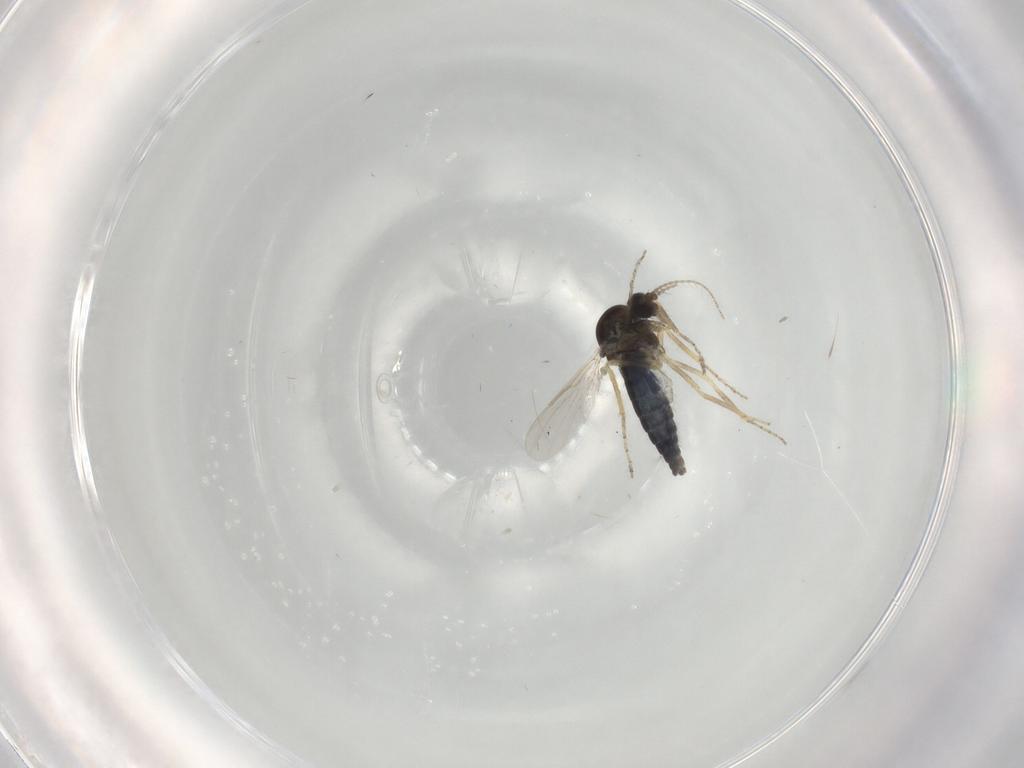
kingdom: Animalia
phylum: Arthropoda
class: Insecta
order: Diptera
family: Ceratopogonidae
